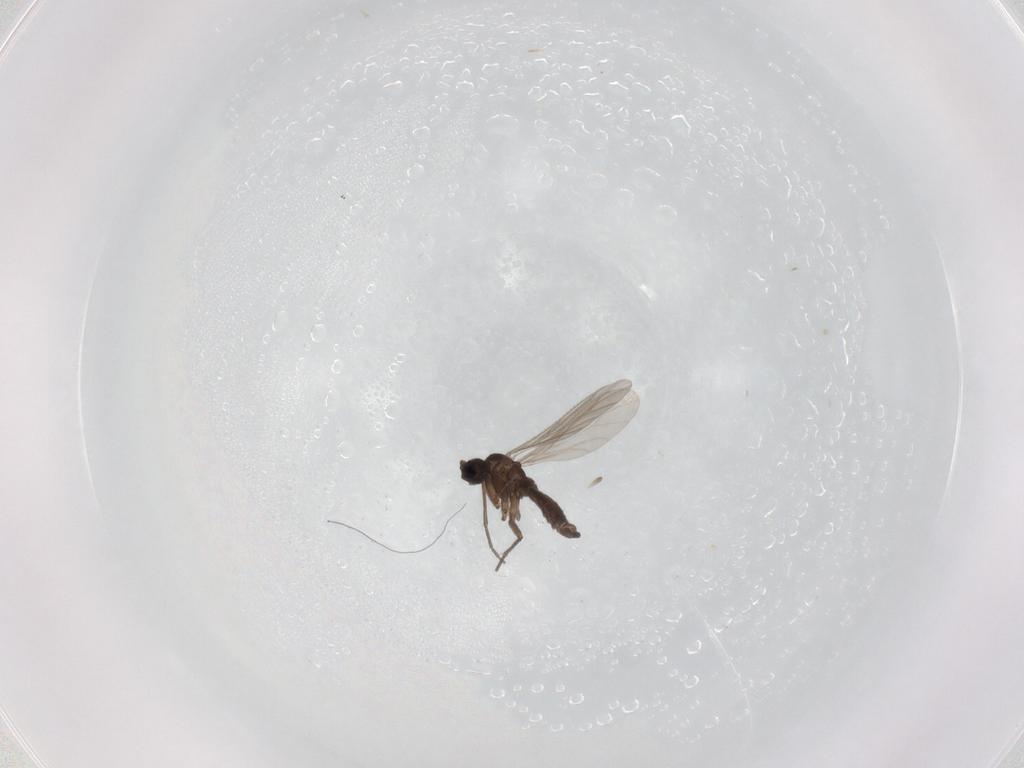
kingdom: Animalia
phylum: Arthropoda
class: Insecta
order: Diptera
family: Sciaridae
